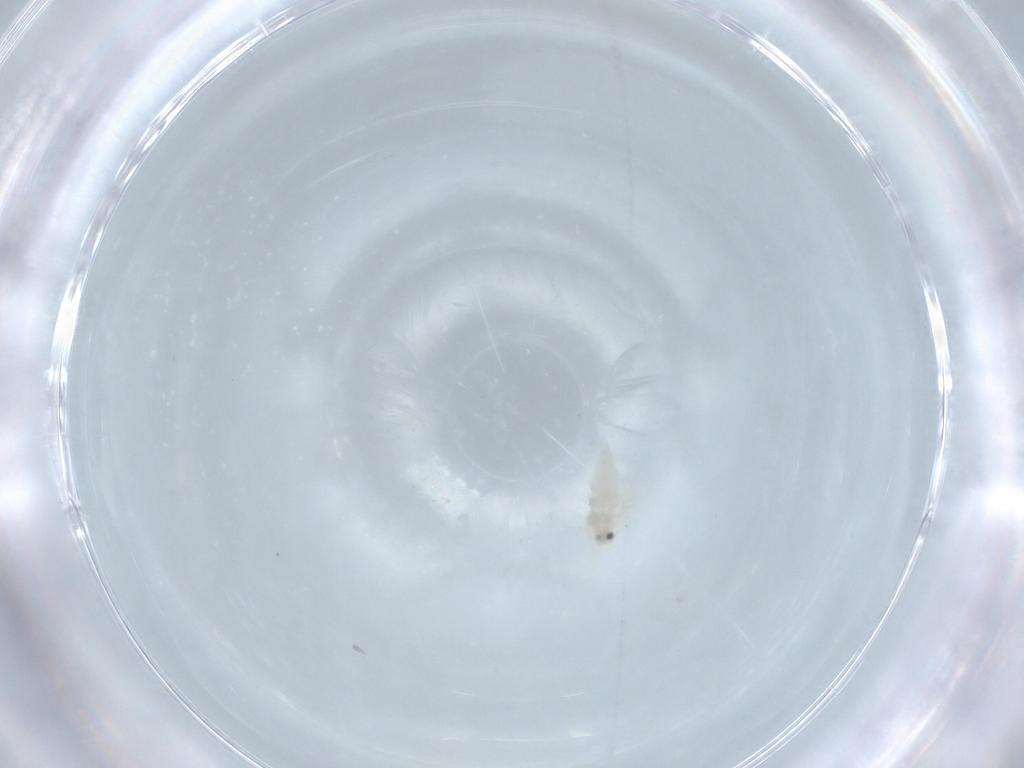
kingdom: Animalia
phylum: Arthropoda
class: Insecta
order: Hemiptera
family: Aleyrodidae
